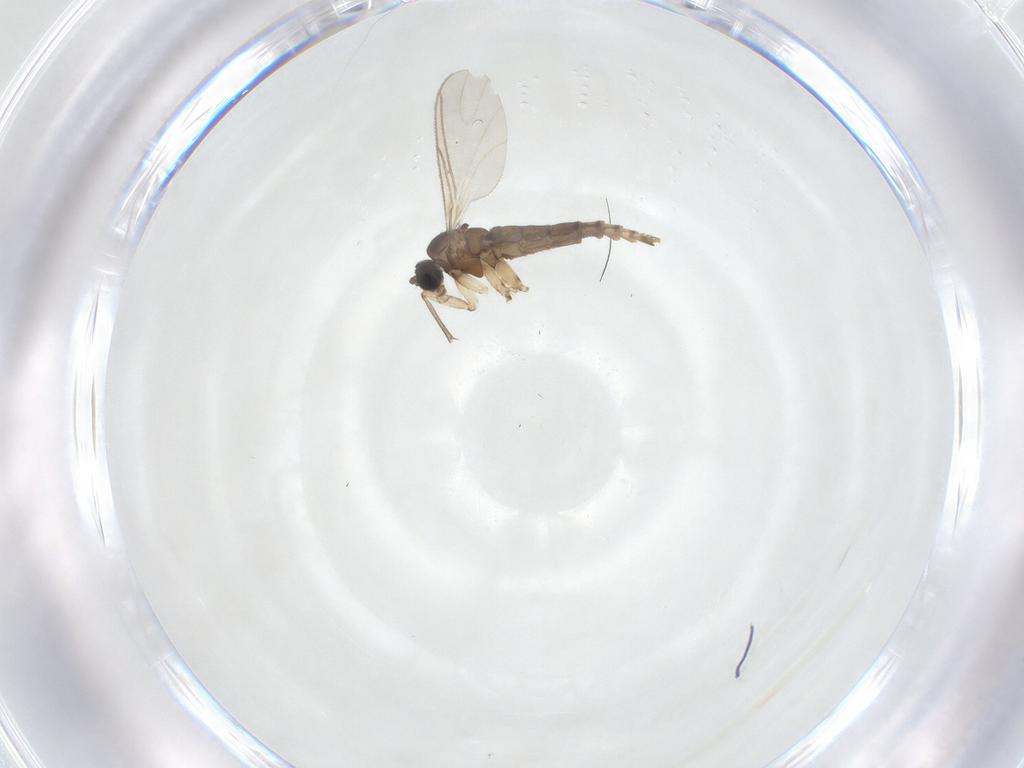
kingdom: Animalia
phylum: Arthropoda
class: Insecta
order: Diptera
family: Sciaridae
